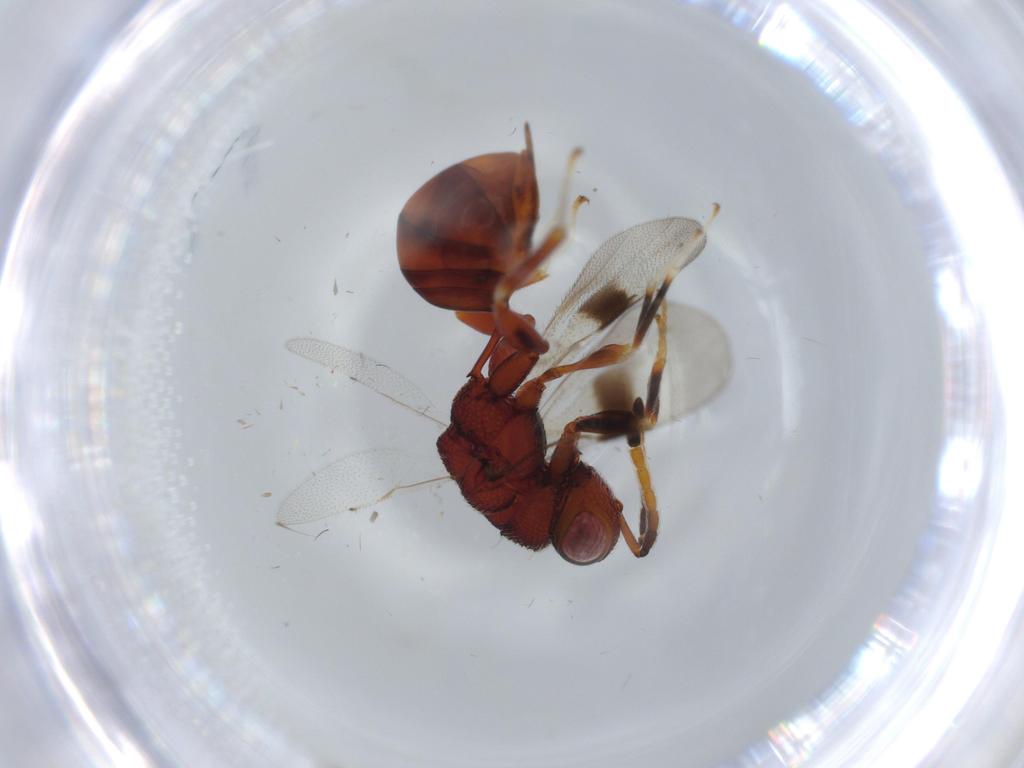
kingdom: Animalia
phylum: Arthropoda
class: Insecta
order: Hymenoptera
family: Eurytomidae
